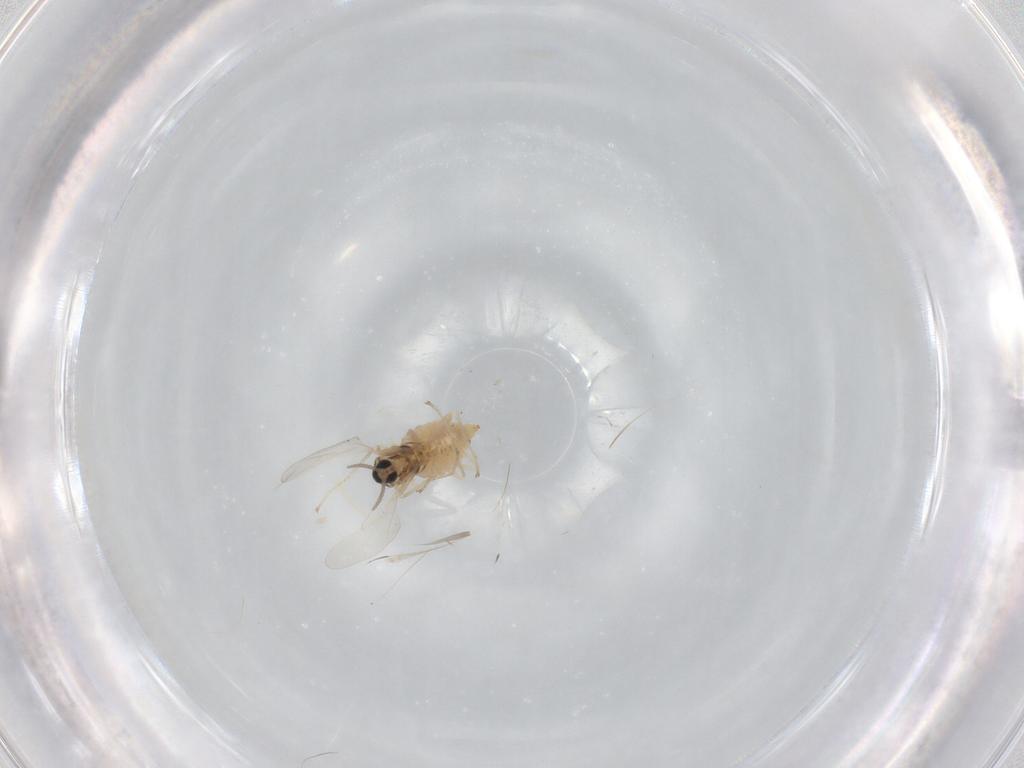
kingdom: Animalia
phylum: Arthropoda
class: Insecta
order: Diptera
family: Cecidomyiidae
